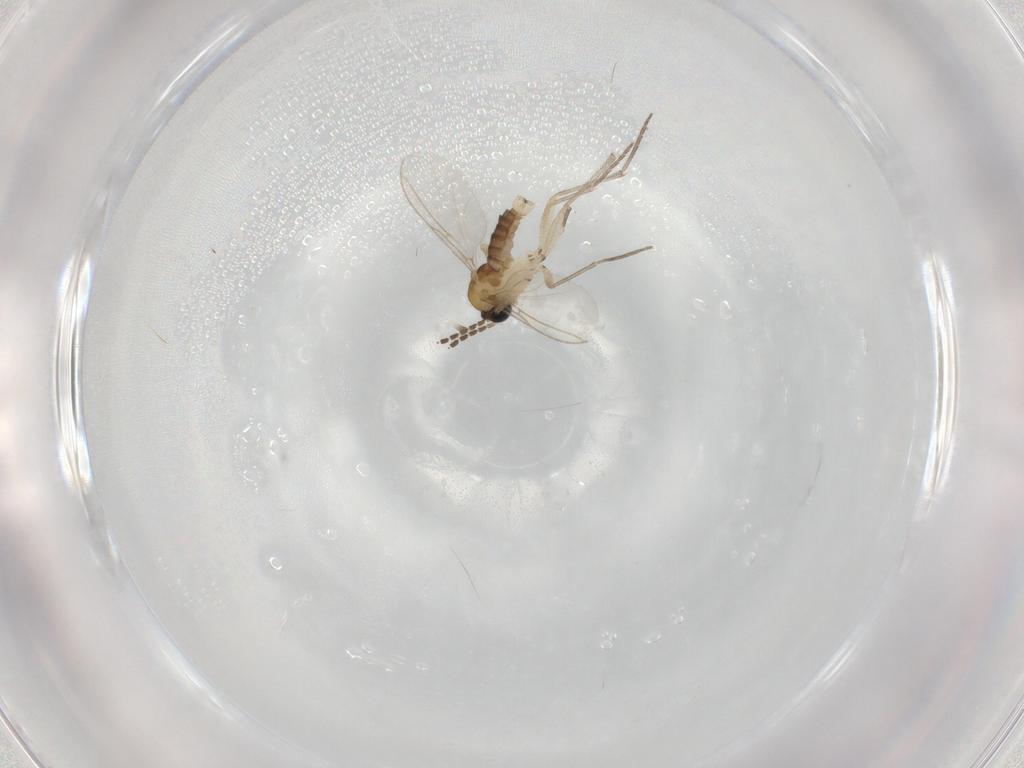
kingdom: Animalia
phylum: Arthropoda
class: Insecta
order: Diptera
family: Sciaridae
